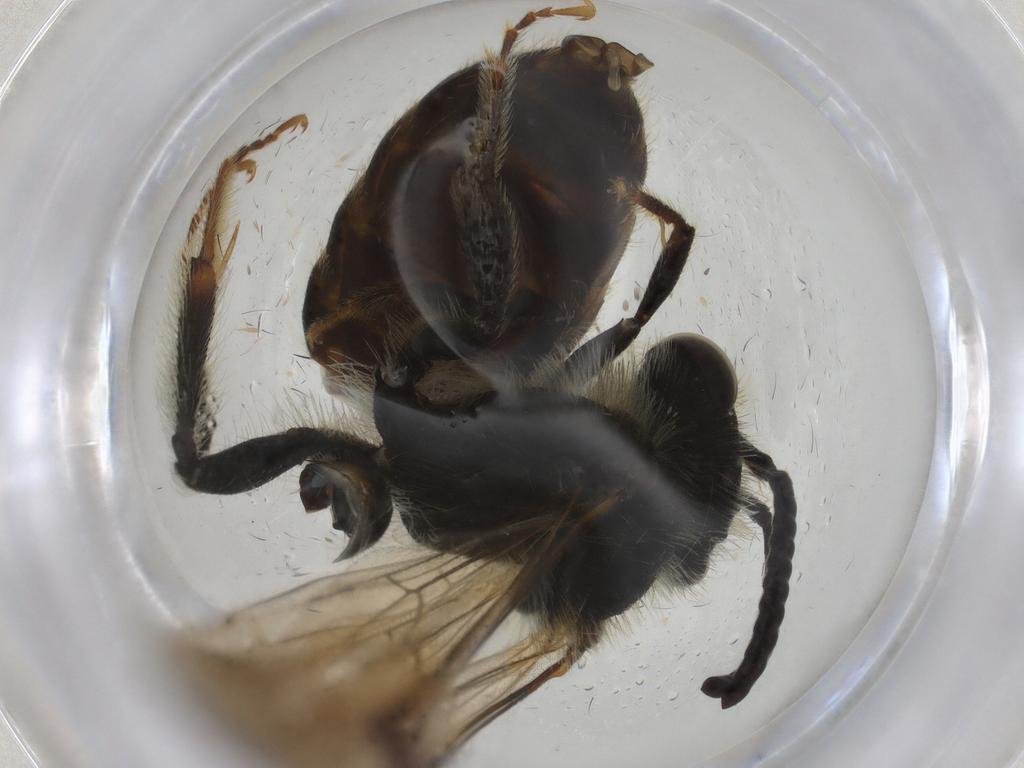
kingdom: Animalia
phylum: Arthropoda
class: Insecta
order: Hymenoptera
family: Andrenidae
